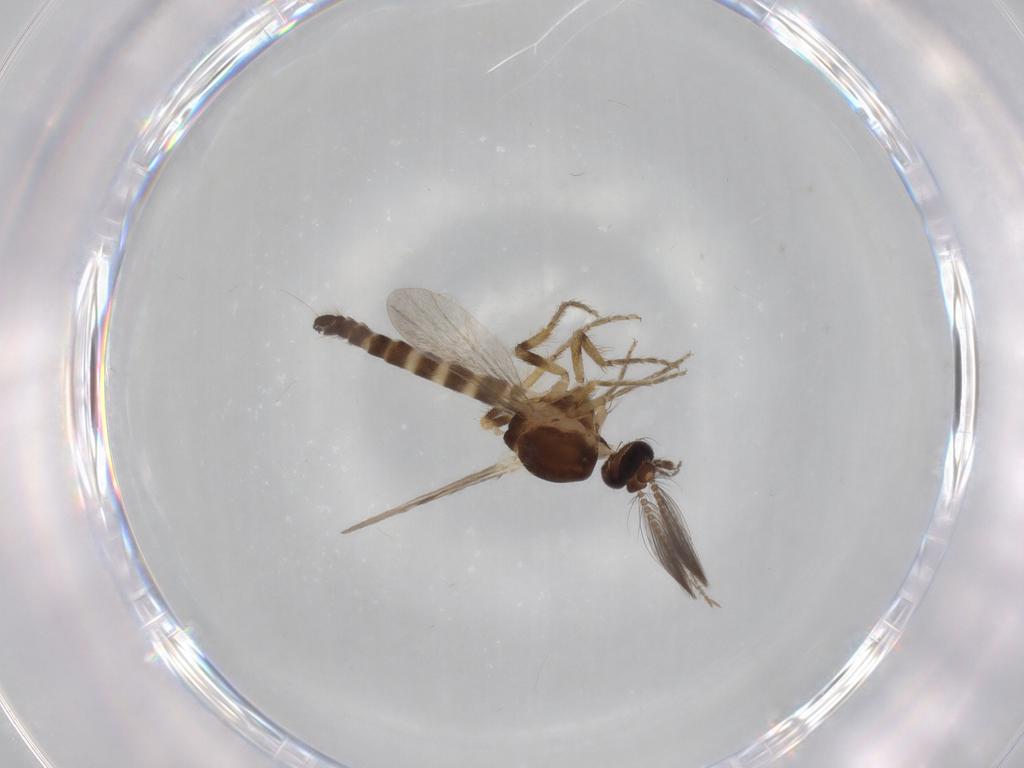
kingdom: Animalia
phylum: Arthropoda
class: Insecta
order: Diptera
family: Ceratopogonidae
